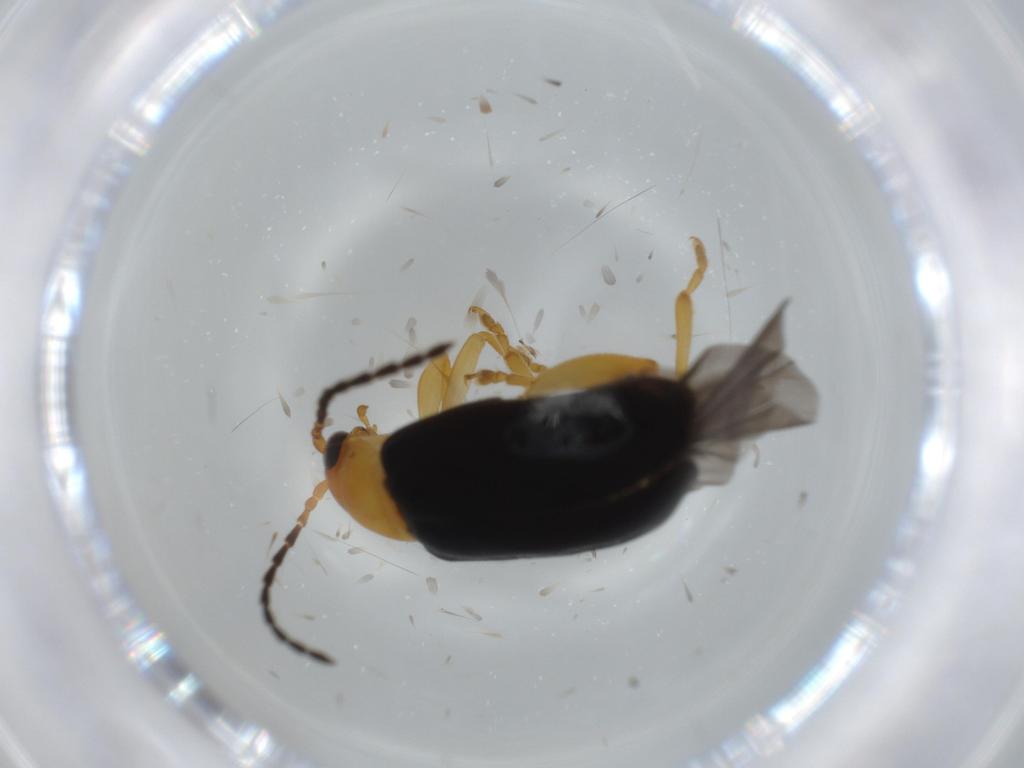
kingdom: Animalia
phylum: Arthropoda
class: Insecta
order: Coleoptera
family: Chrysomelidae
